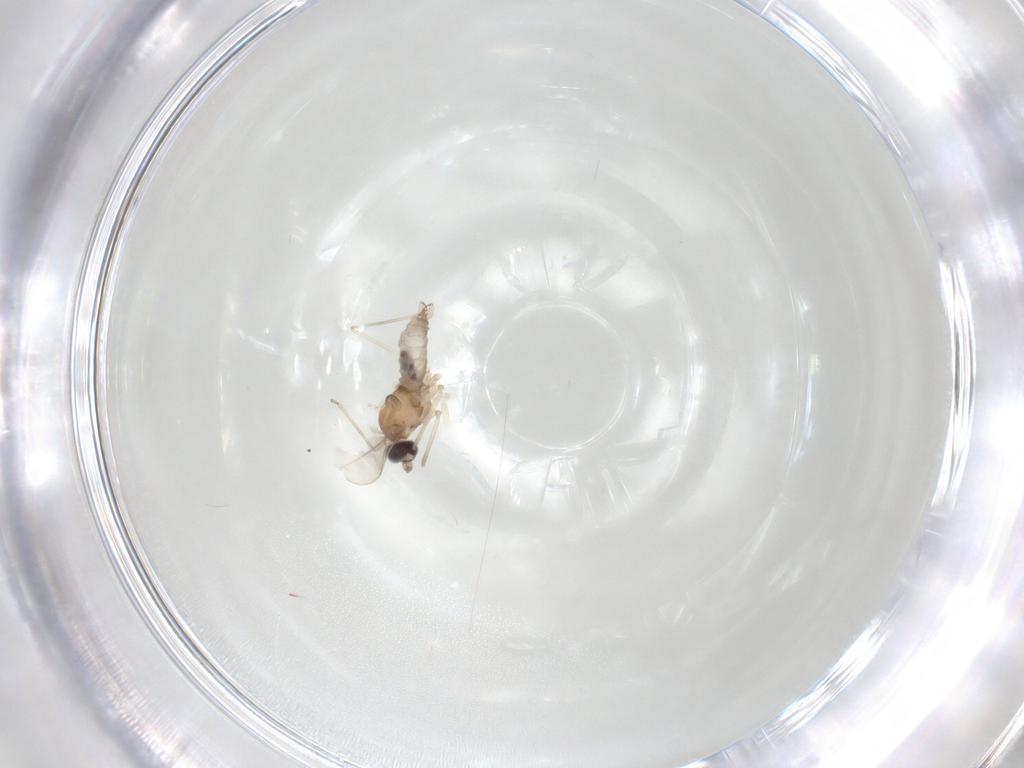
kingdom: Animalia
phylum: Arthropoda
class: Insecta
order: Diptera
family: Cecidomyiidae
